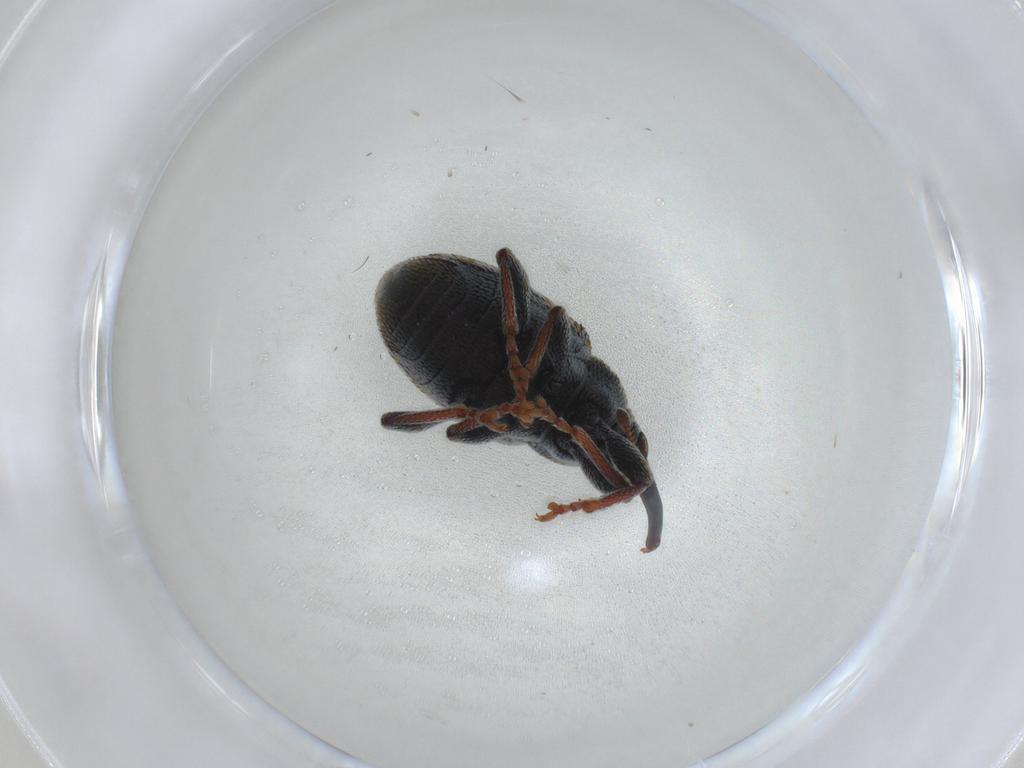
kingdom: Animalia
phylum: Arthropoda
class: Insecta
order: Coleoptera
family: Curculionidae
